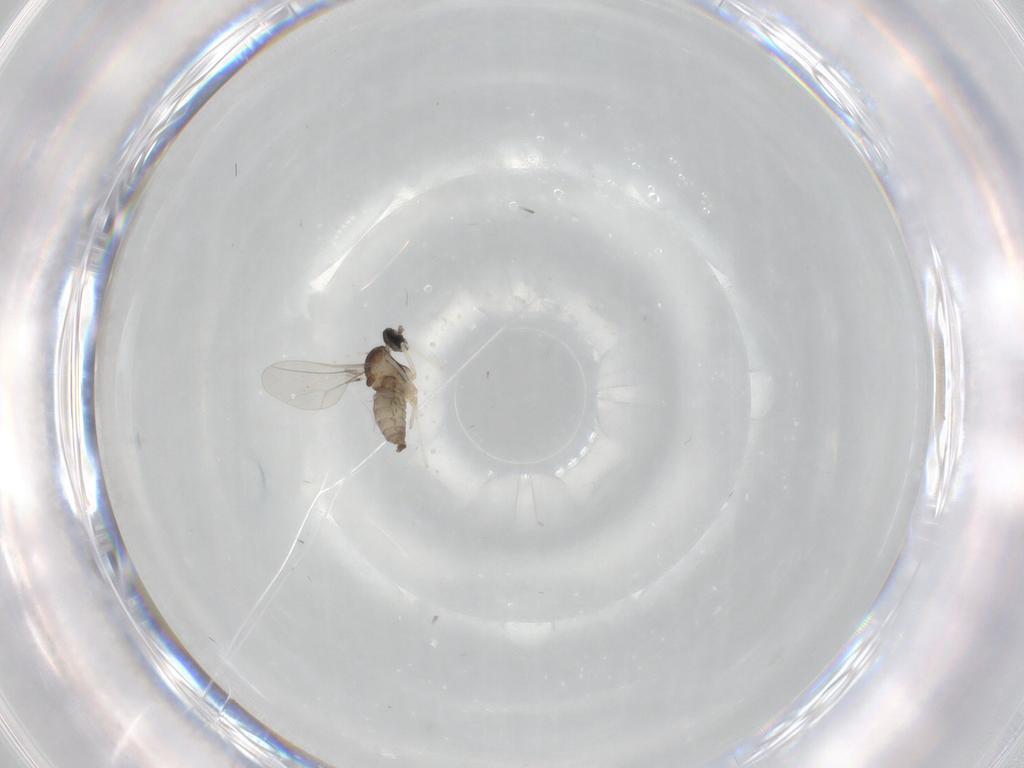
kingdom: Animalia
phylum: Arthropoda
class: Insecta
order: Diptera
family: Cecidomyiidae
